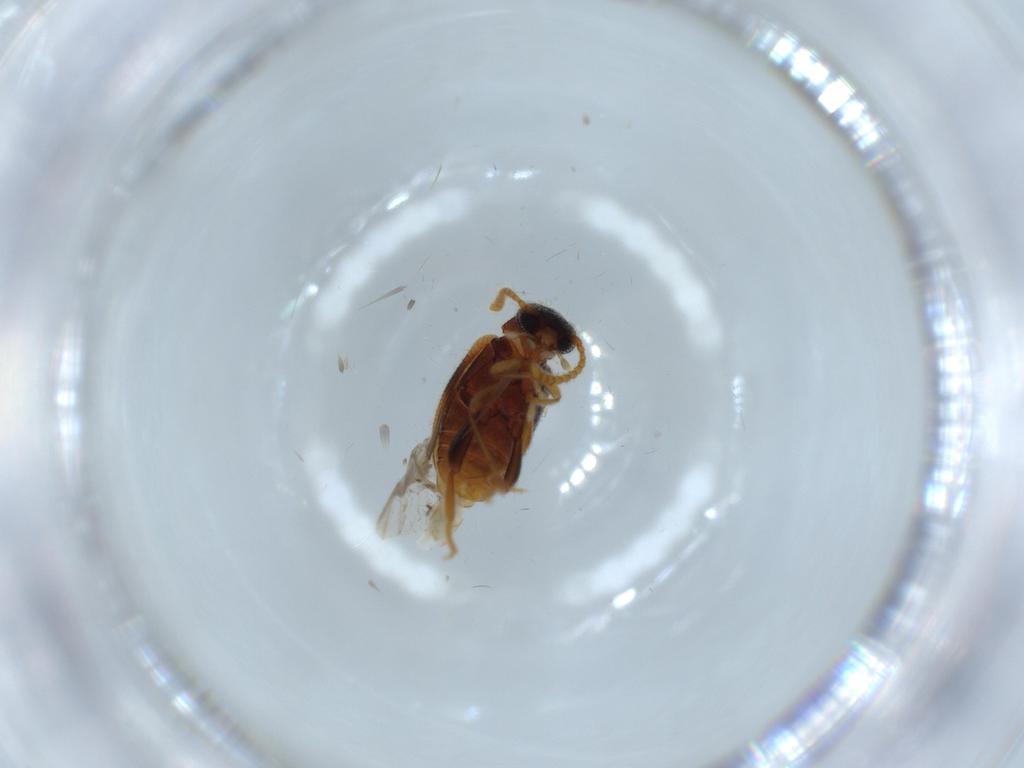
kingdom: Animalia
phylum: Arthropoda
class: Insecta
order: Coleoptera
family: Aderidae
